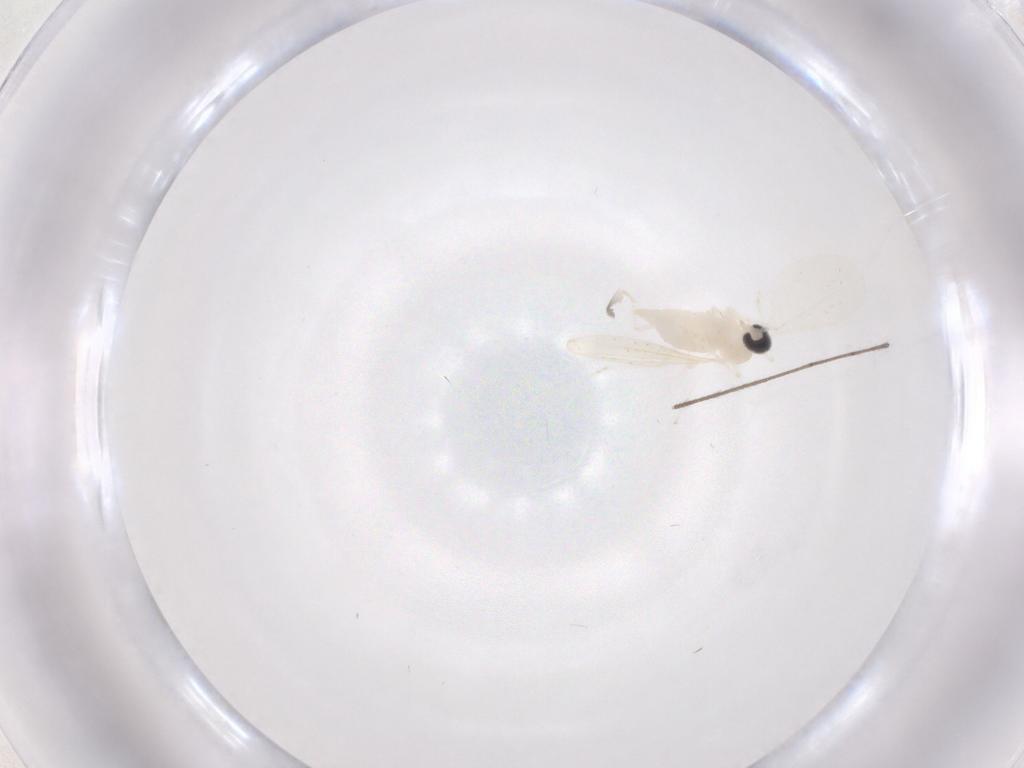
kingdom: Animalia
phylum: Arthropoda
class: Insecta
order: Diptera
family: Cecidomyiidae
